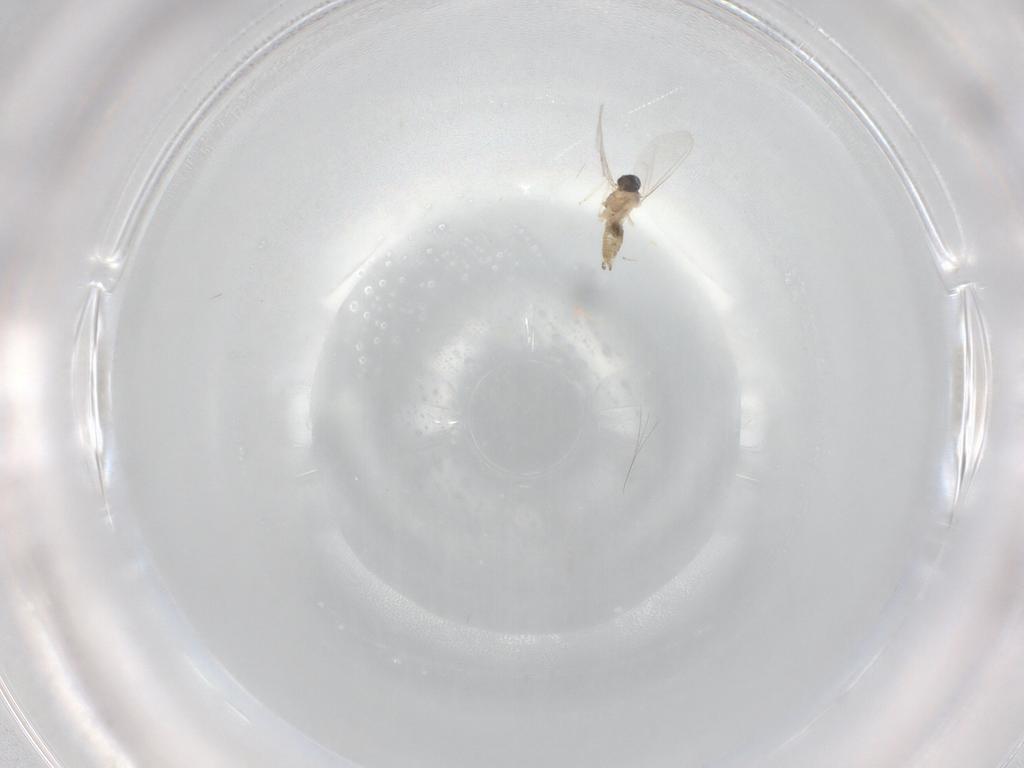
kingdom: Animalia
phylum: Arthropoda
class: Insecta
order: Diptera
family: Cecidomyiidae
